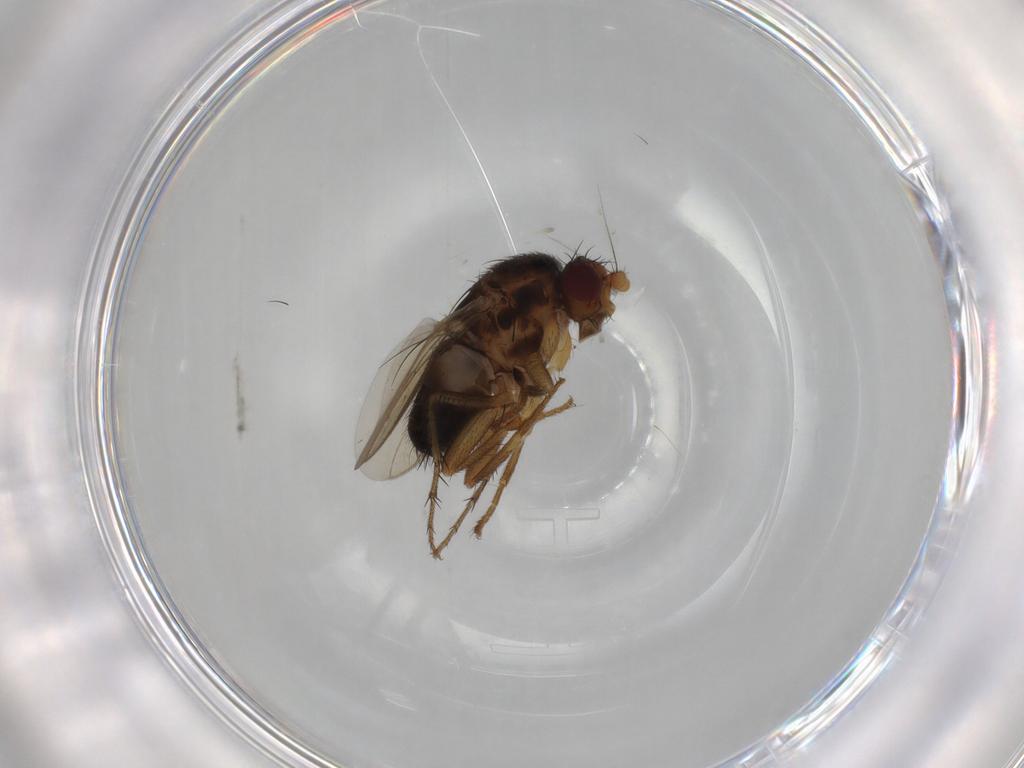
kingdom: Animalia
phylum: Arthropoda
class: Insecta
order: Diptera
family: Sphaeroceridae
